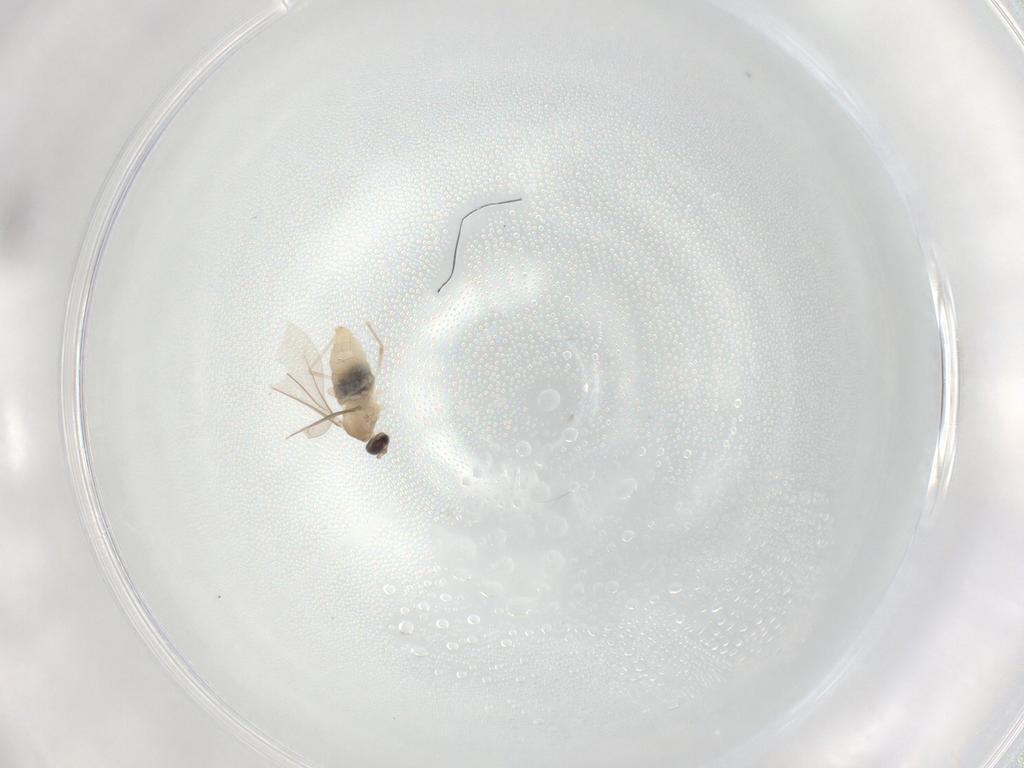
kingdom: Animalia
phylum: Arthropoda
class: Insecta
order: Diptera
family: Cecidomyiidae
